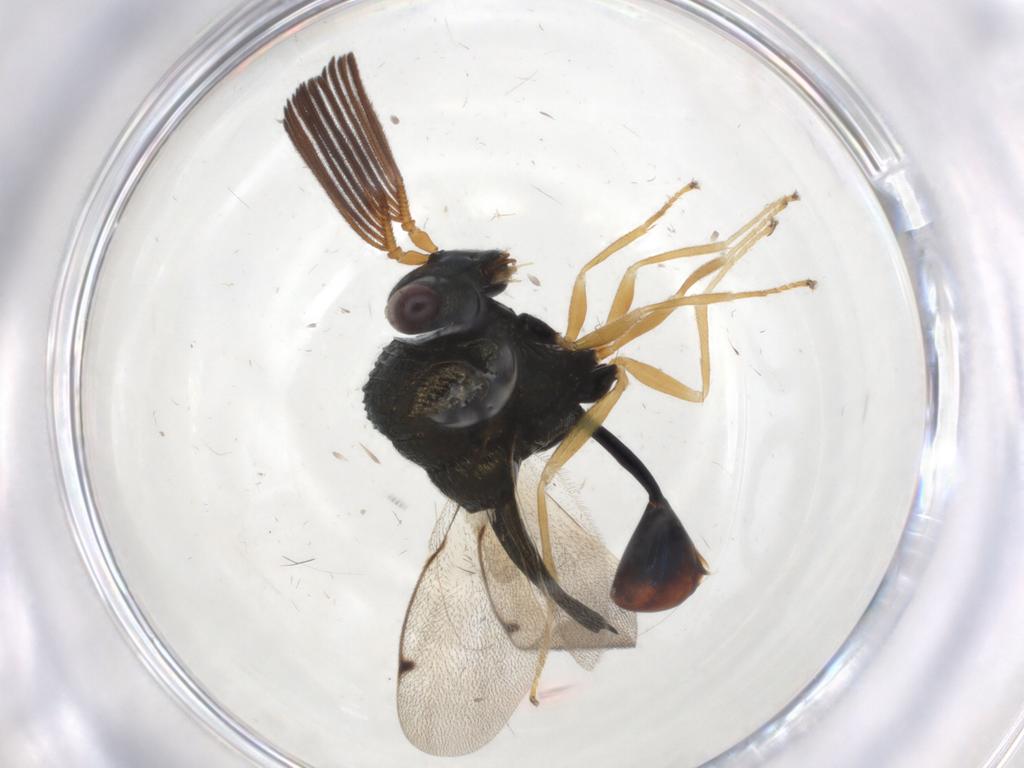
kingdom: Animalia
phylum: Arthropoda
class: Insecta
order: Hymenoptera
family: Eucharitidae
